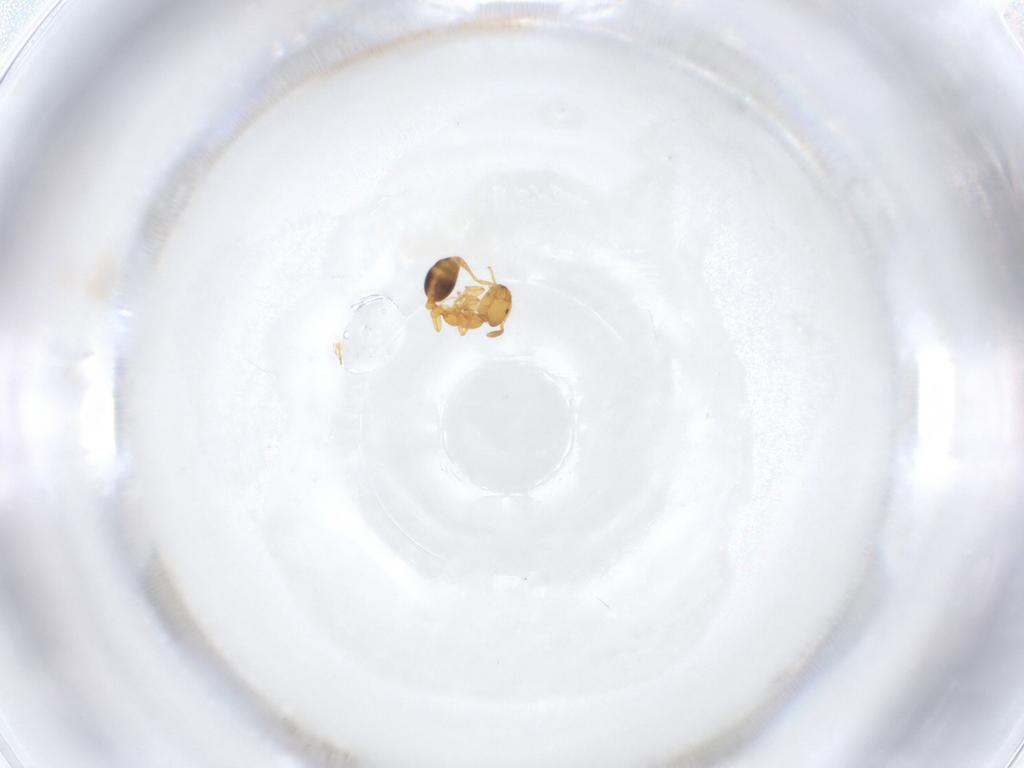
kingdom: Animalia
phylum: Arthropoda
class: Insecta
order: Hymenoptera
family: Formicidae
